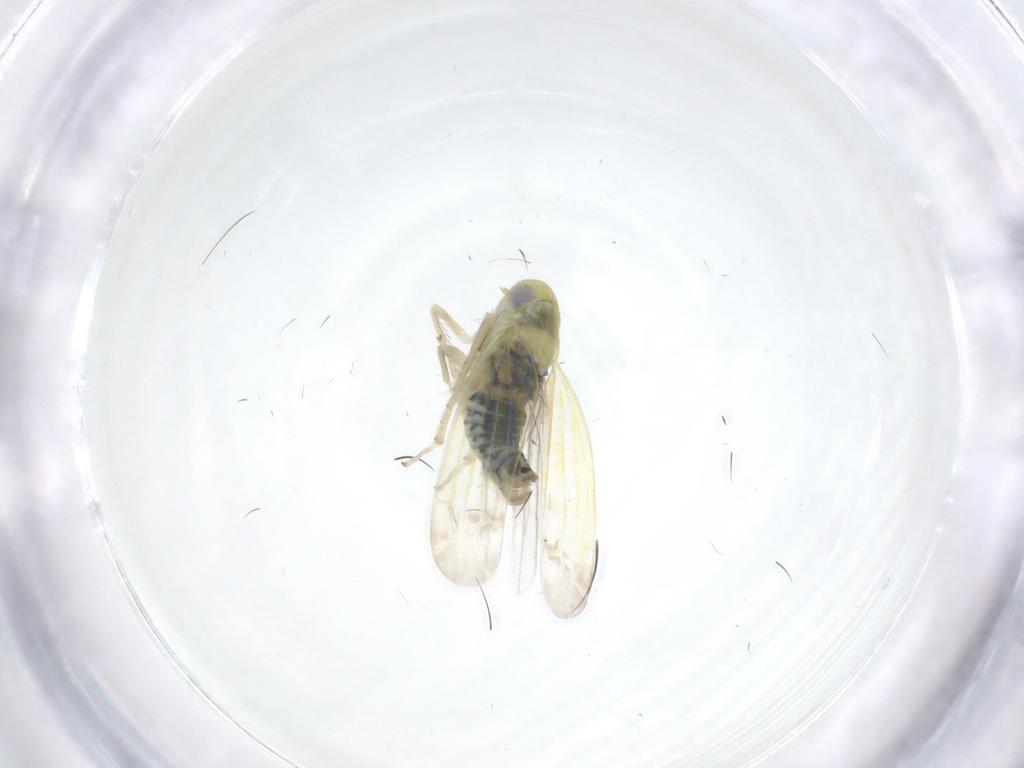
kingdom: Animalia
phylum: Arthropoda
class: Insecta
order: Hemiptera
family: Cicadellidae
